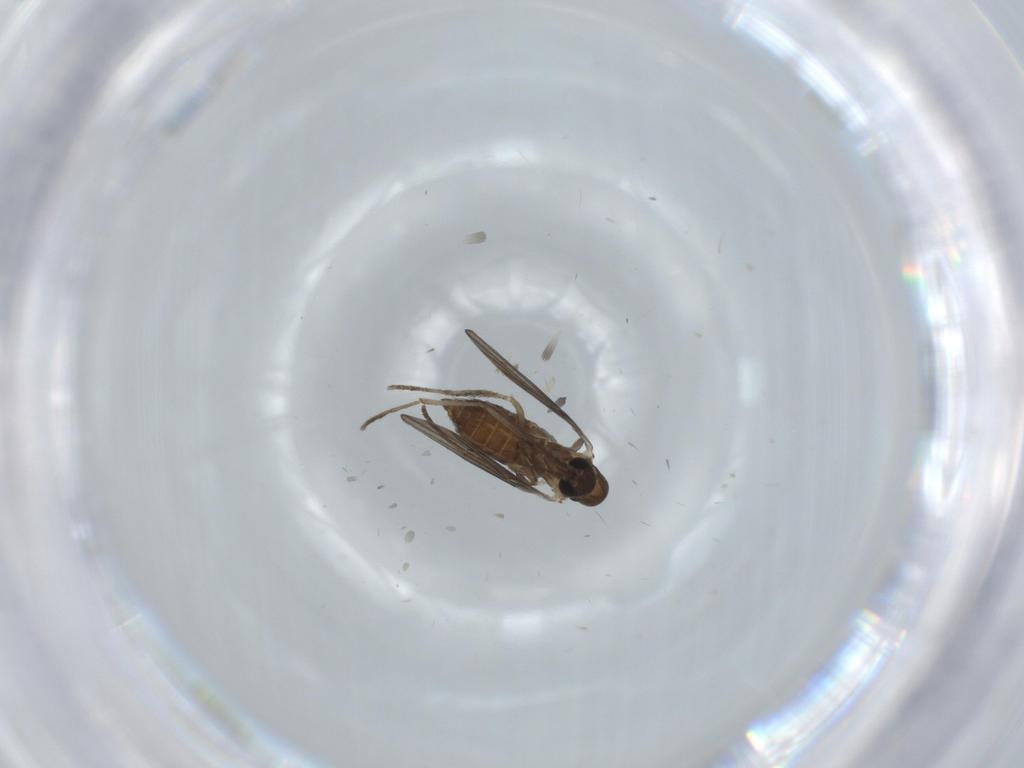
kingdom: Animalia
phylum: Arthropoda
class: Insecta
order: Diptera
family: Psychodidae
